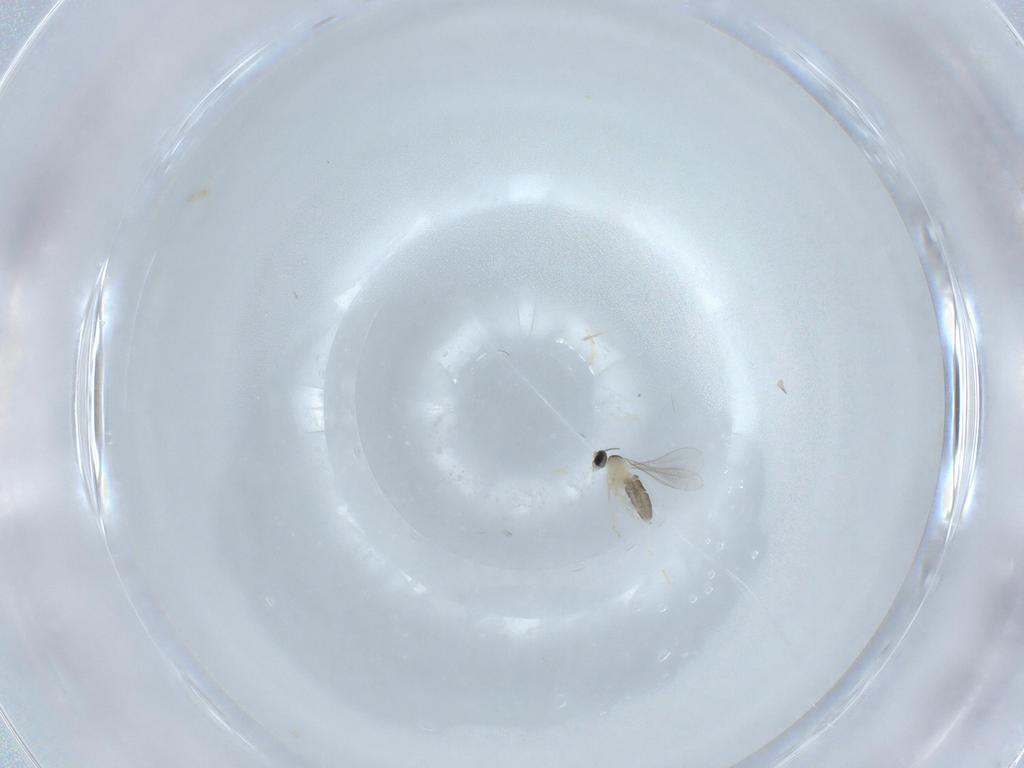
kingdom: Animalia
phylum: Arthropoda
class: Insecta
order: Diptera
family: Cecidomyiidae
